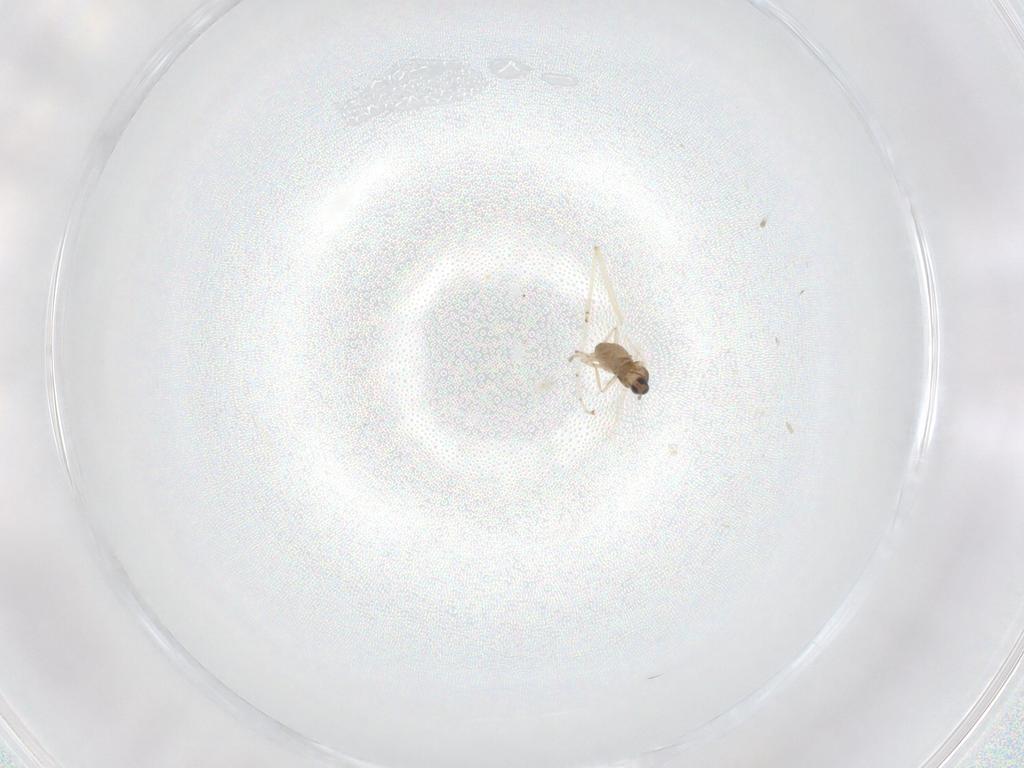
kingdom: Animalia
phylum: Arthropoda
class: Insecta
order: Diptera
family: Cecidomyiidae
